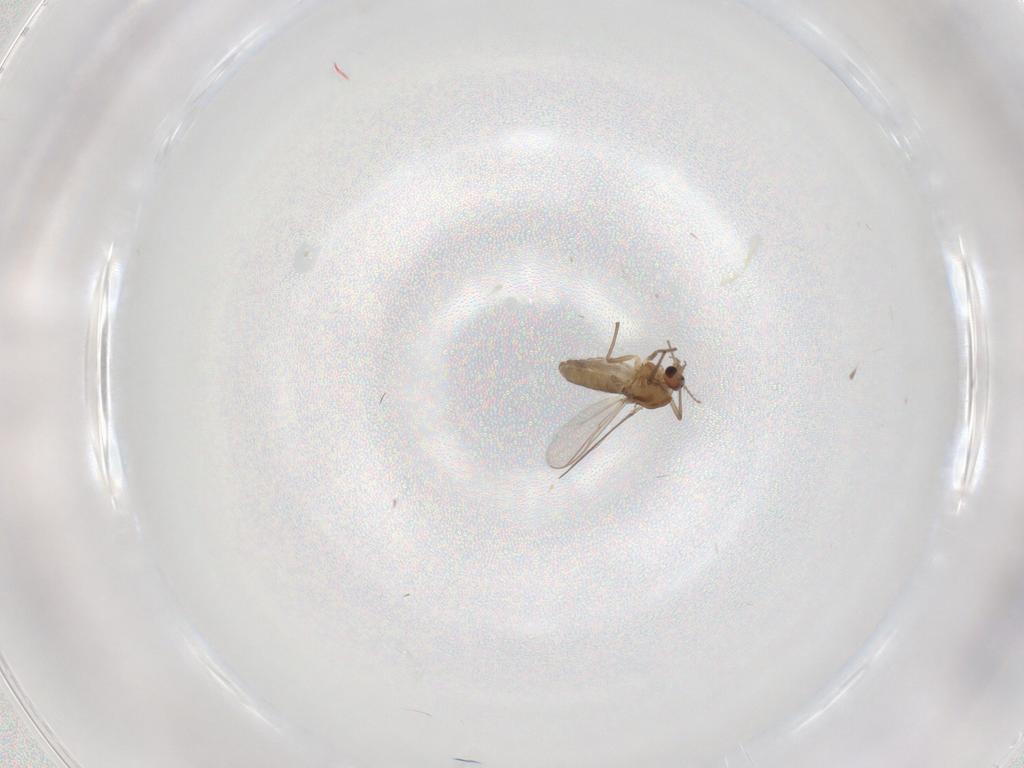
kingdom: Animalia
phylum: Arthropoda
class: Insecta
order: Diptera
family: Chironomidae
